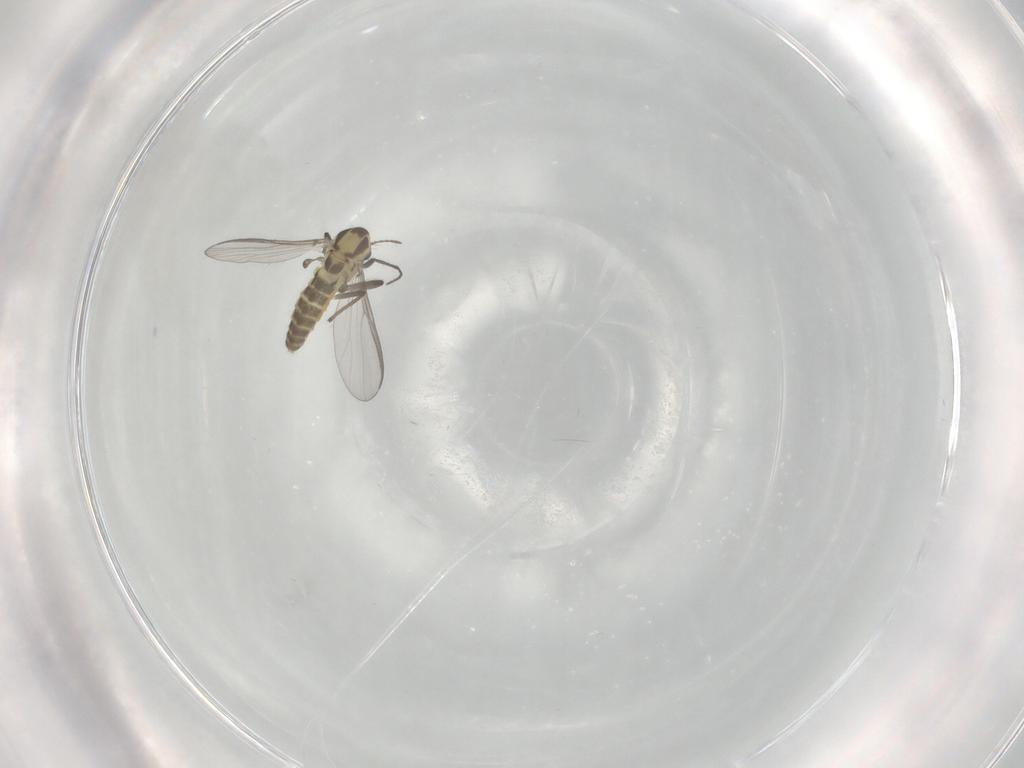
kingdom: Animalia
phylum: Arthropoda
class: Insecta
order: Diptera
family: Chironomidae
